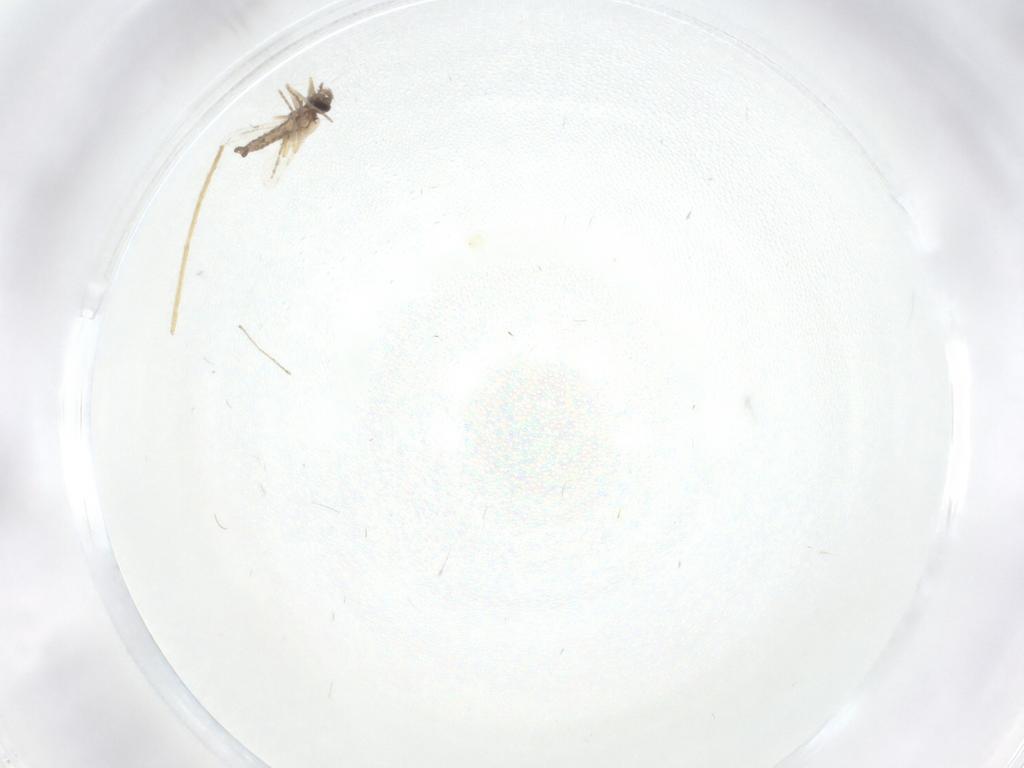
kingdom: Animalia
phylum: Arthropoda
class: Insecta
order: Diptera
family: Ceratopogonidae
